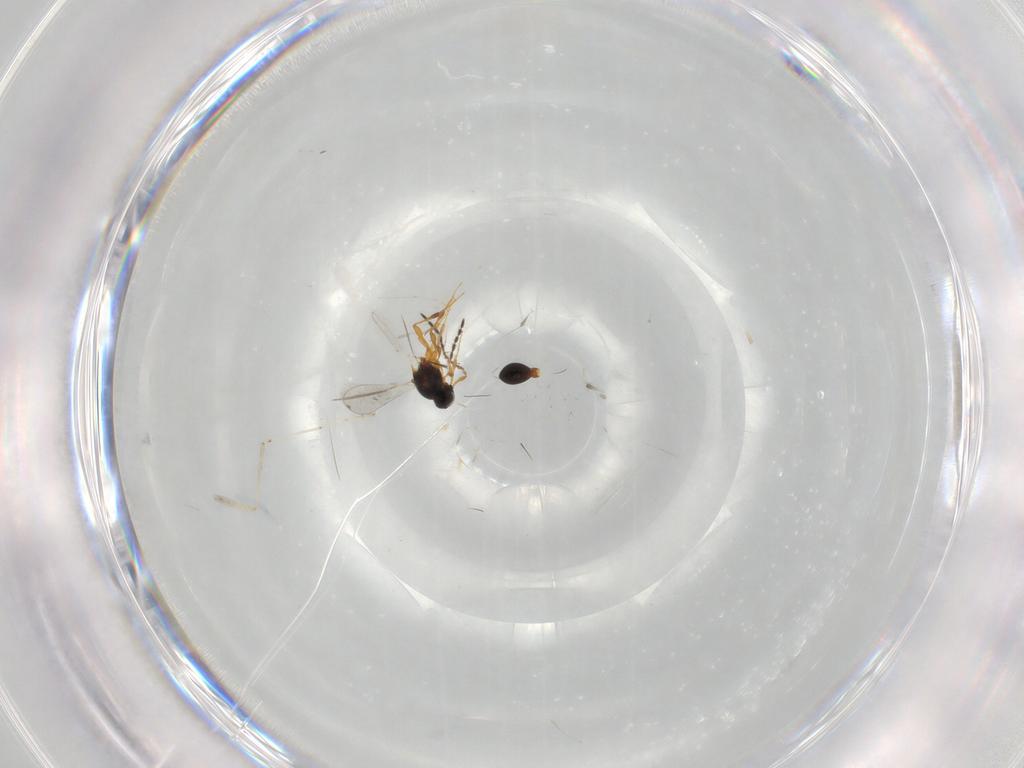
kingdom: Animalia
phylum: Arthropoda
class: Insecta
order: Hymenoptera
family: Platygastridae
